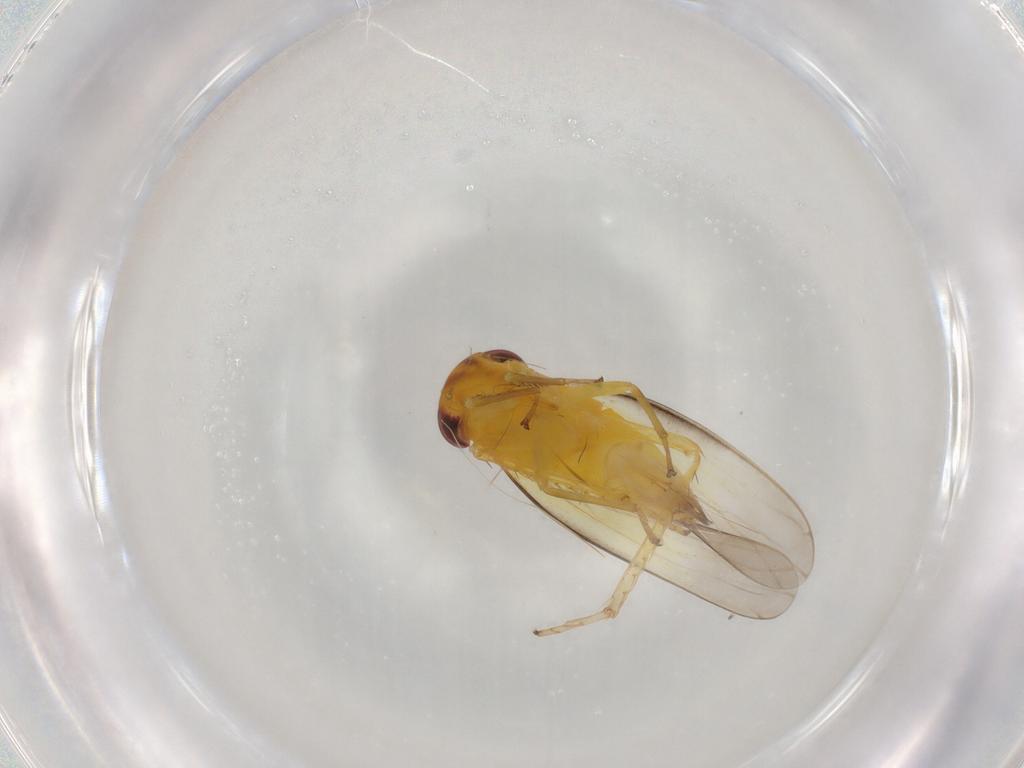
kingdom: Animalia
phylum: Arthropoda
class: Insecta
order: Hemiptera
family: Cicadellidae
